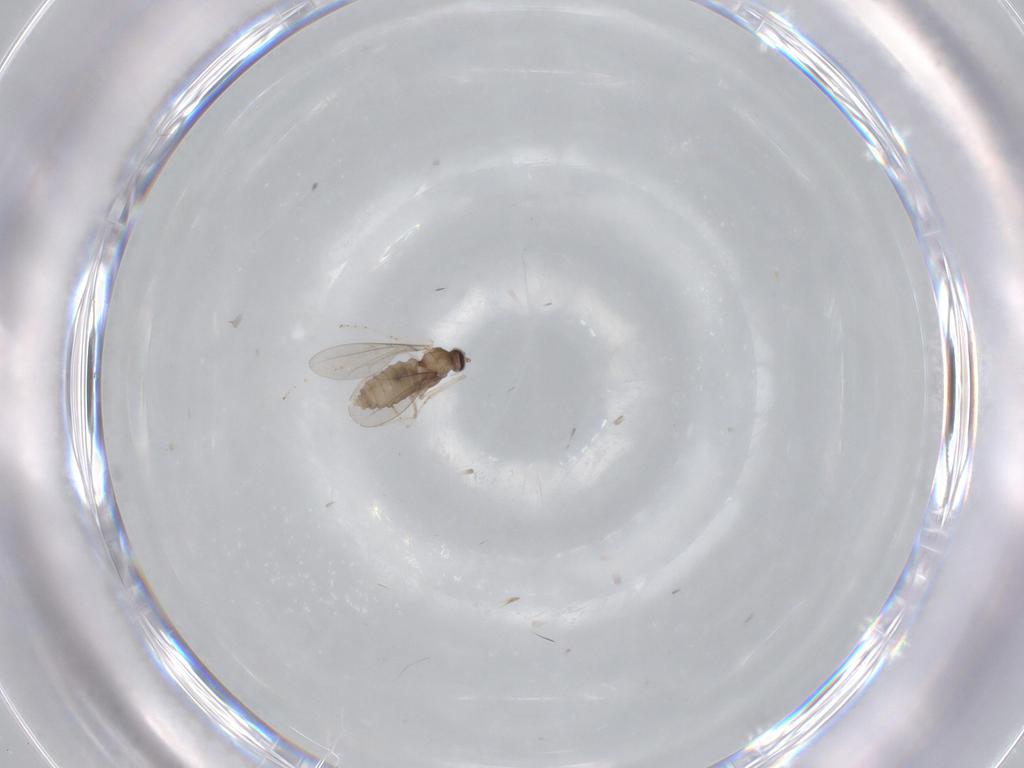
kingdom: Animalia
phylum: Arthropoda
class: Insecta
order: Diptera
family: Cecidomyiidae
